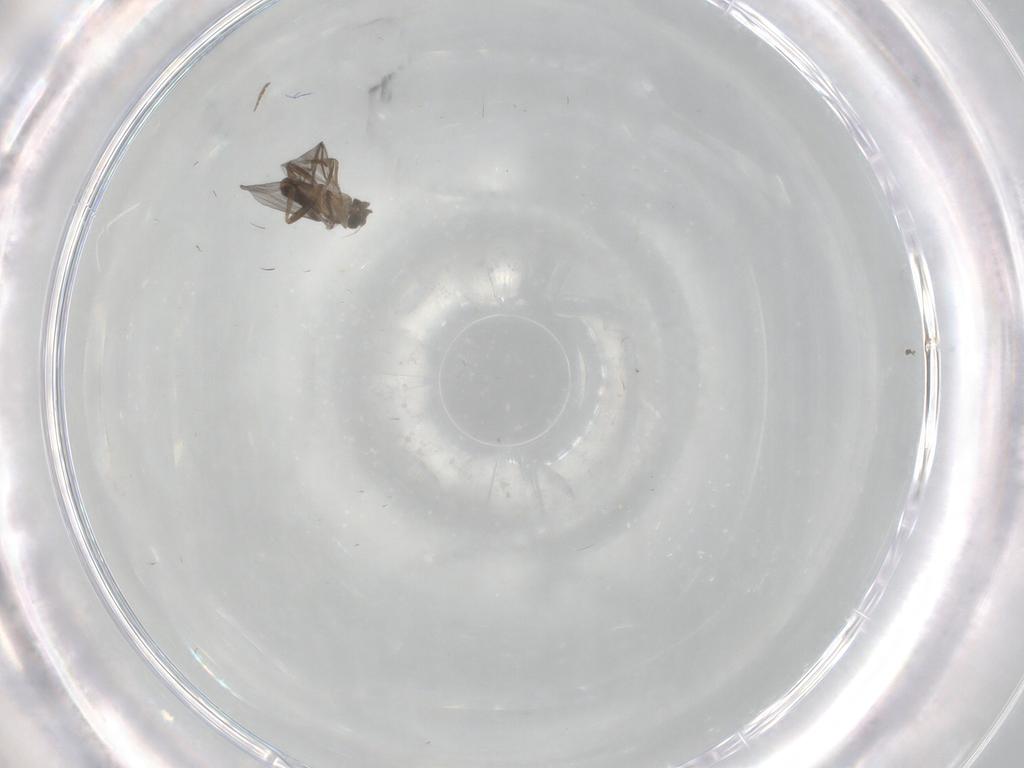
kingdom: Animalia
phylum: Arthropoda
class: Insecta
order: Diptera
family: Phoridae
